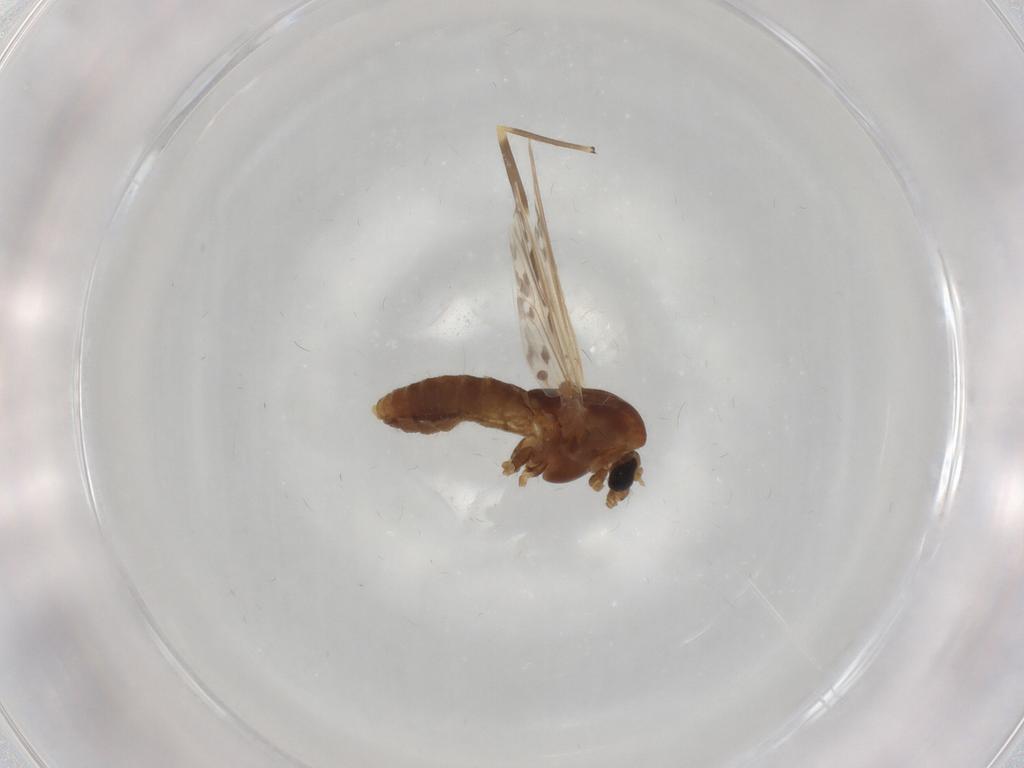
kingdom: Animalia
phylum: Arthropoda
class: Insecta
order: Diptera
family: Chironomidae
